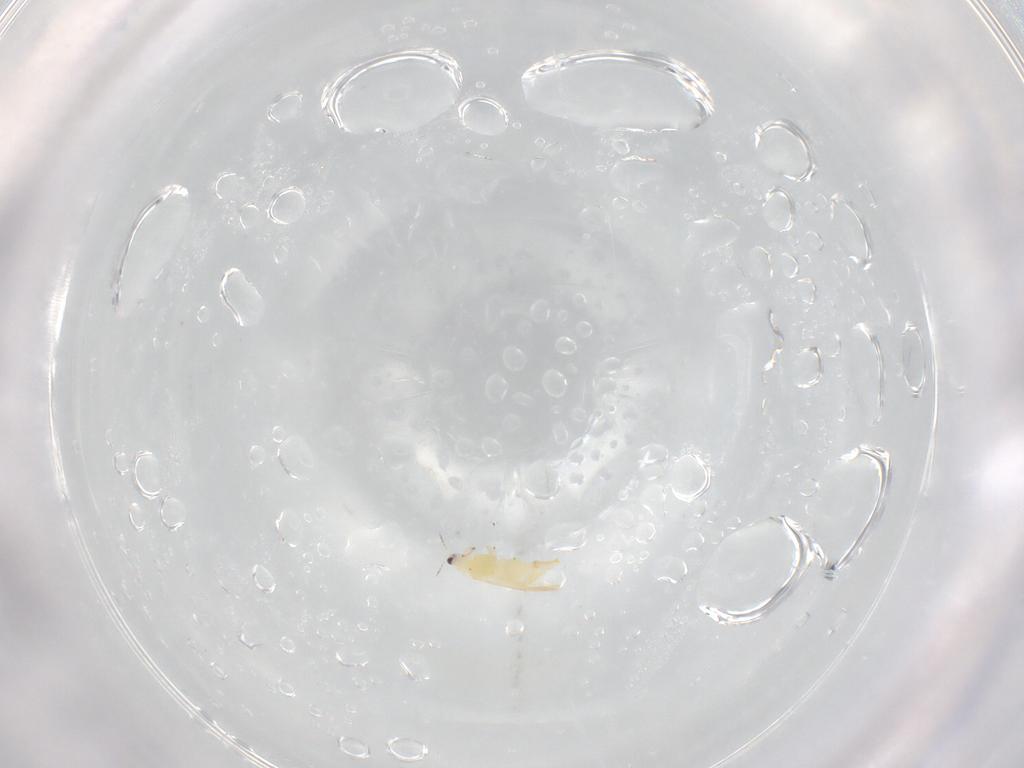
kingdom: Animalia
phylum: Arthropoda
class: Insecta
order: Thysanoptera
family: Thripidae
